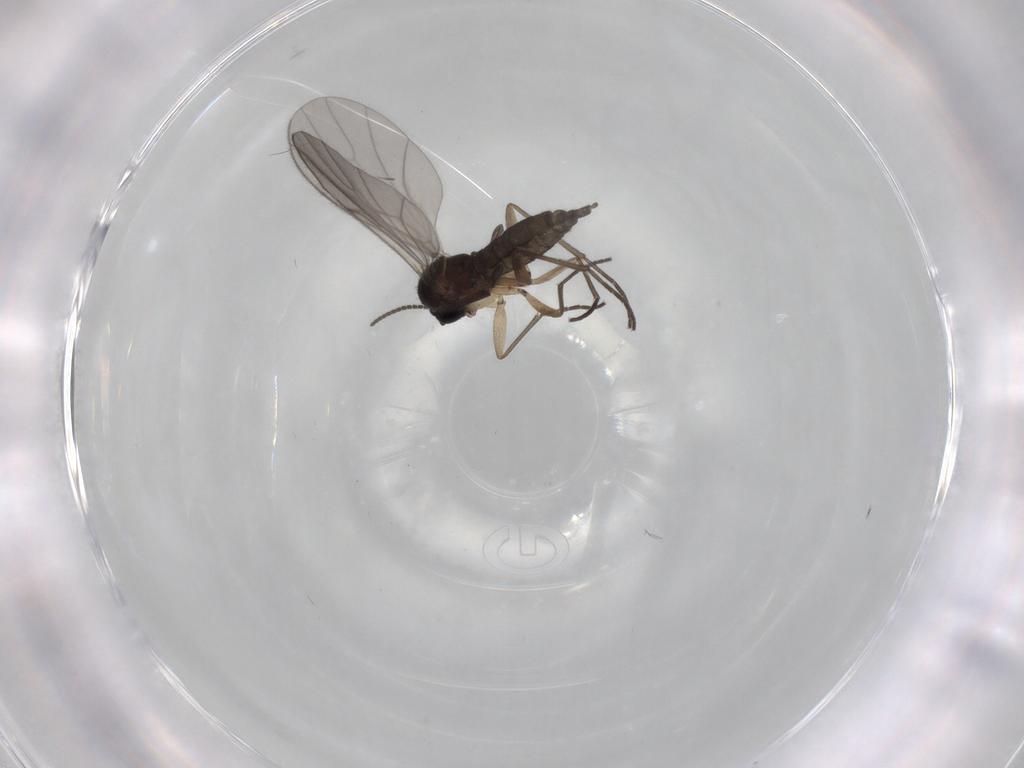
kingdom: Animalia
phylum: Arthropoda
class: Insecta
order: Diptera
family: Sciaridae
